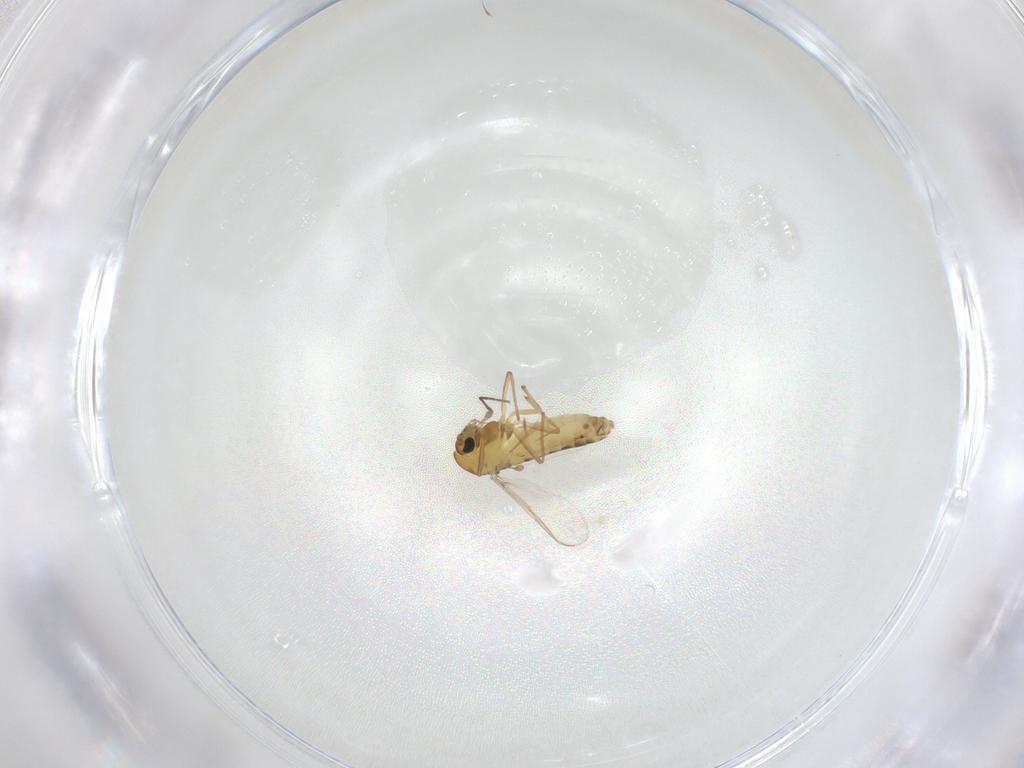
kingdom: Animalia
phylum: Arthropoda
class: Insecta
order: Diptera
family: Chironomidae
